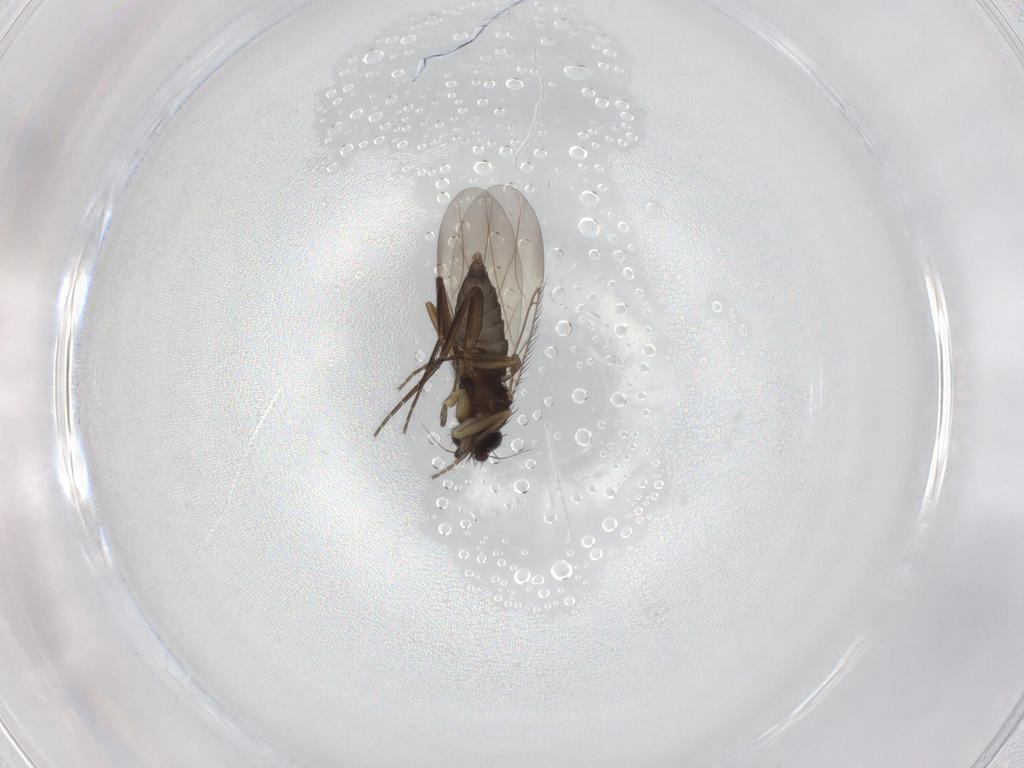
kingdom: Animalia
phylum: Arthropoda
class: Insecta
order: Diptera
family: Phoridae
